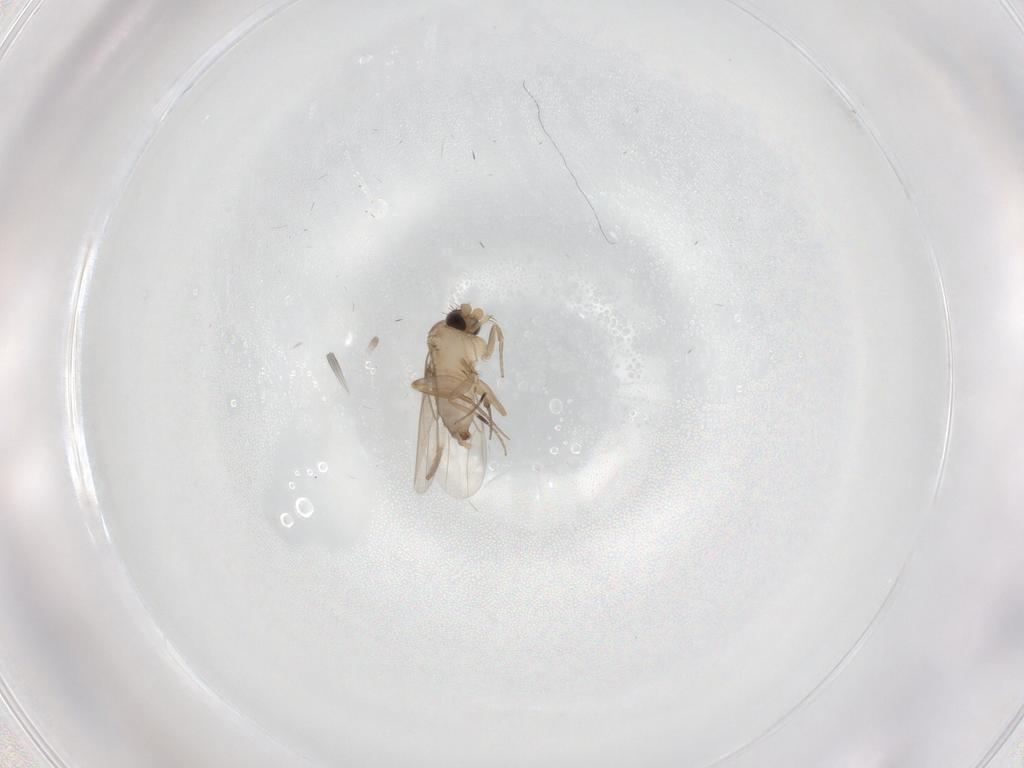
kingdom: Animalia
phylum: Arthropoda
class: Insecta
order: Diptera
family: Phoridae
